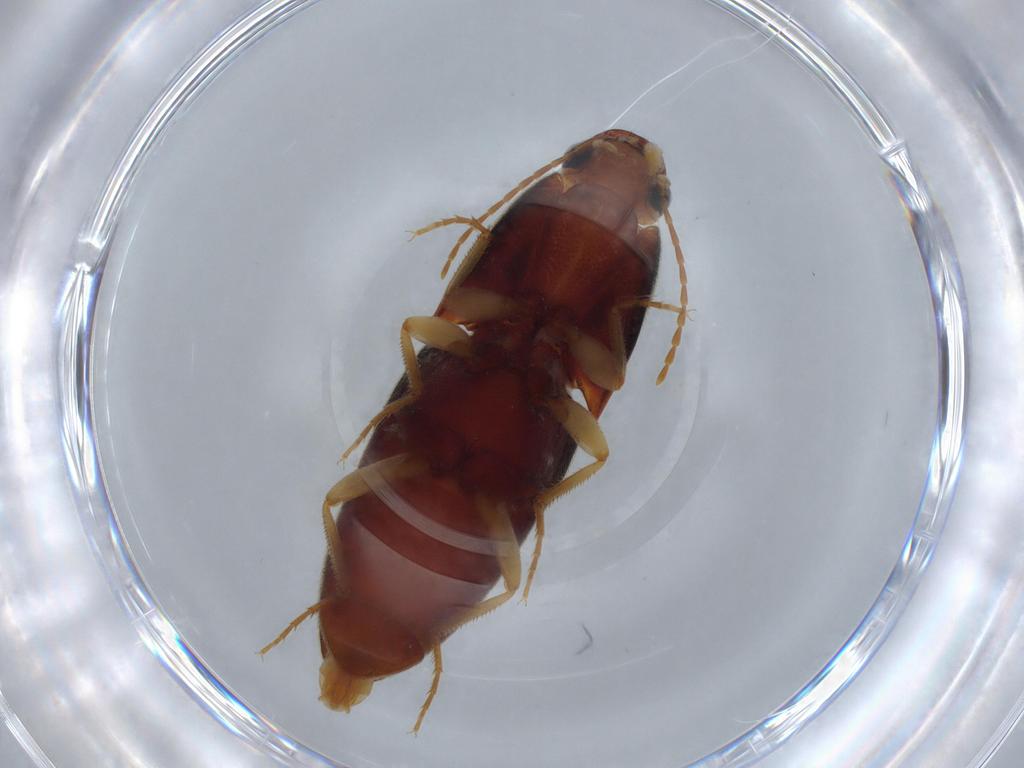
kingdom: Animalia
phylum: Arthropoda
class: Insecta
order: Coleoptera
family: Elateridae
